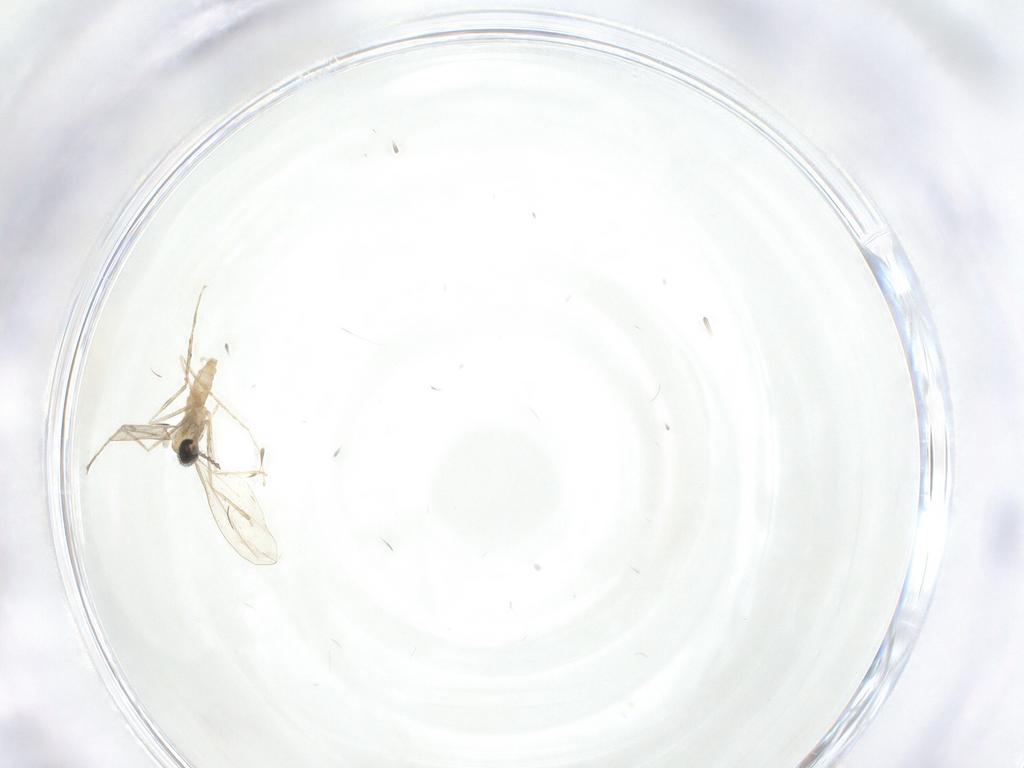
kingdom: Animalia
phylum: Arthropoda
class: Insecta
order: Diptera
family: Cecidomyiidae
